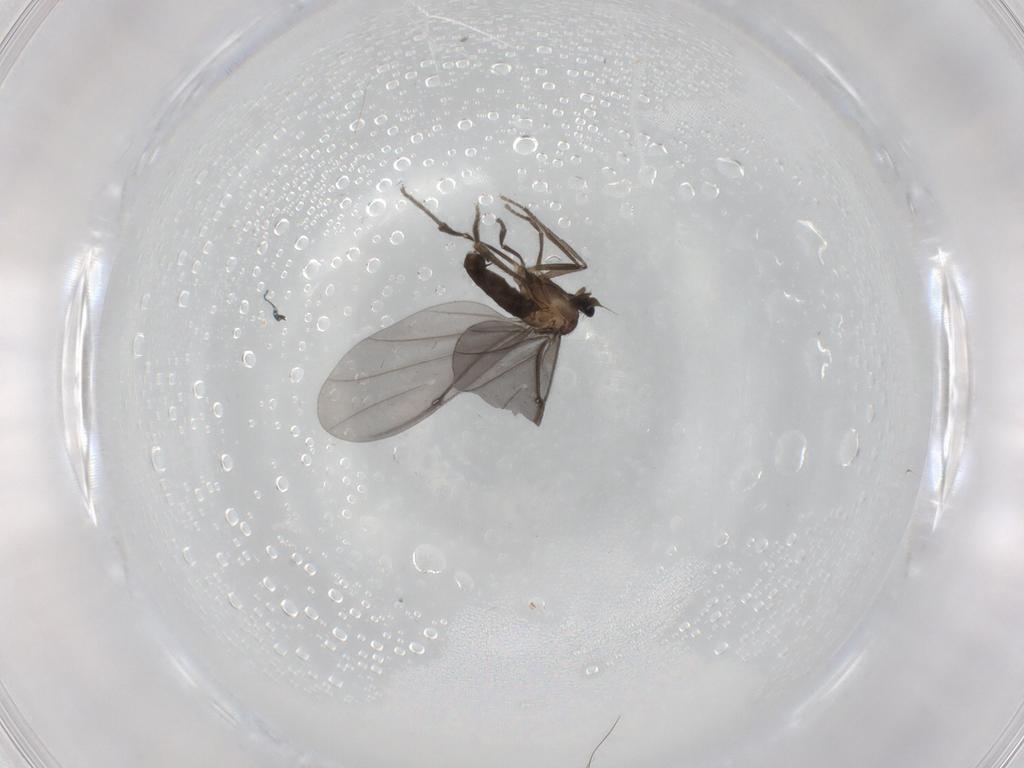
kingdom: Animalia
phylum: Arthropoda
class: Insecta
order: Diptera
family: Phoridae
